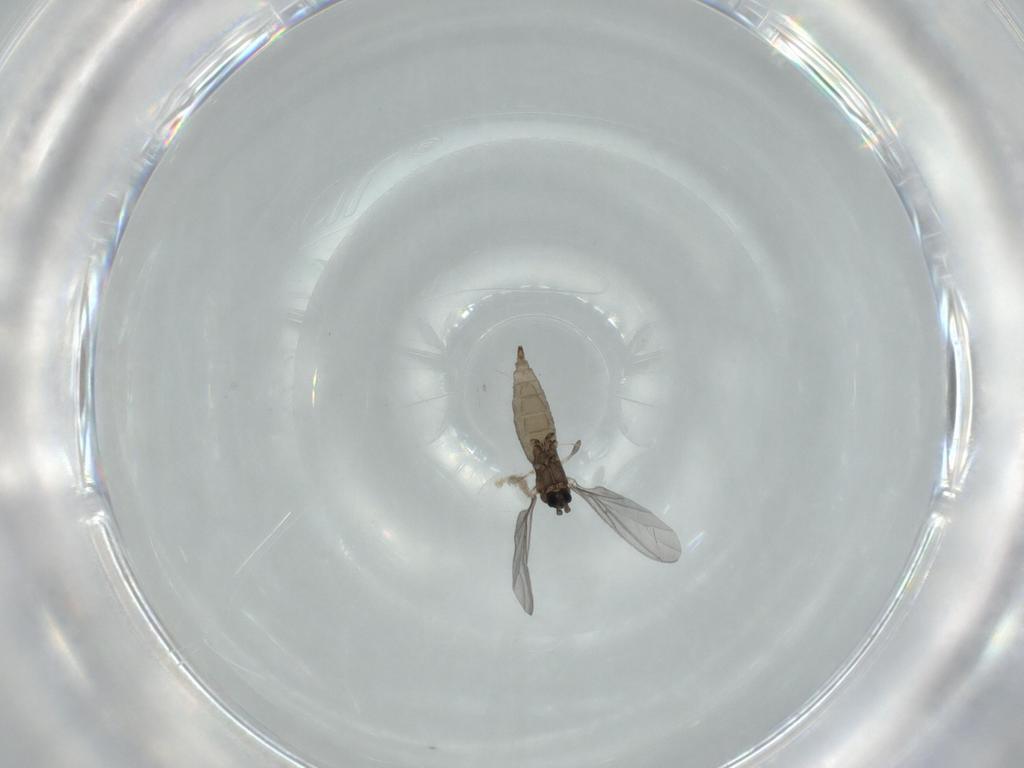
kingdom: Animalia
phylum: Arthropoda
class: Insecta
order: Diptera
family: Sciaridae
